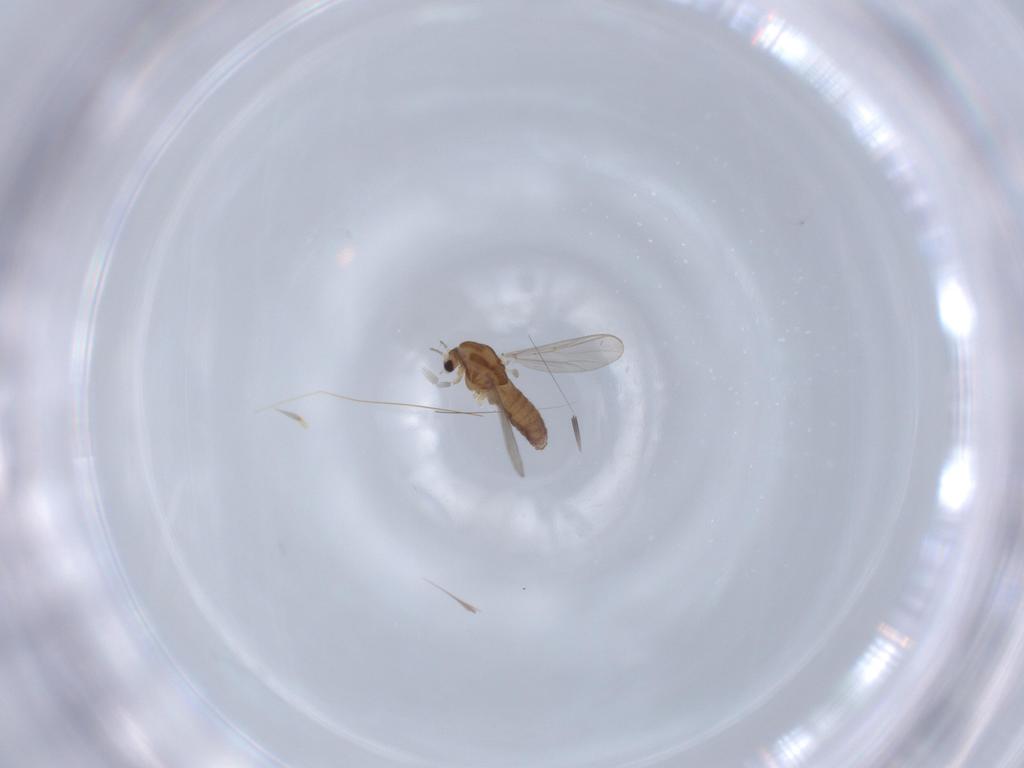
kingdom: Animalia
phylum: Arthropoda
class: Insecta
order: Diptera
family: Chironomidae
